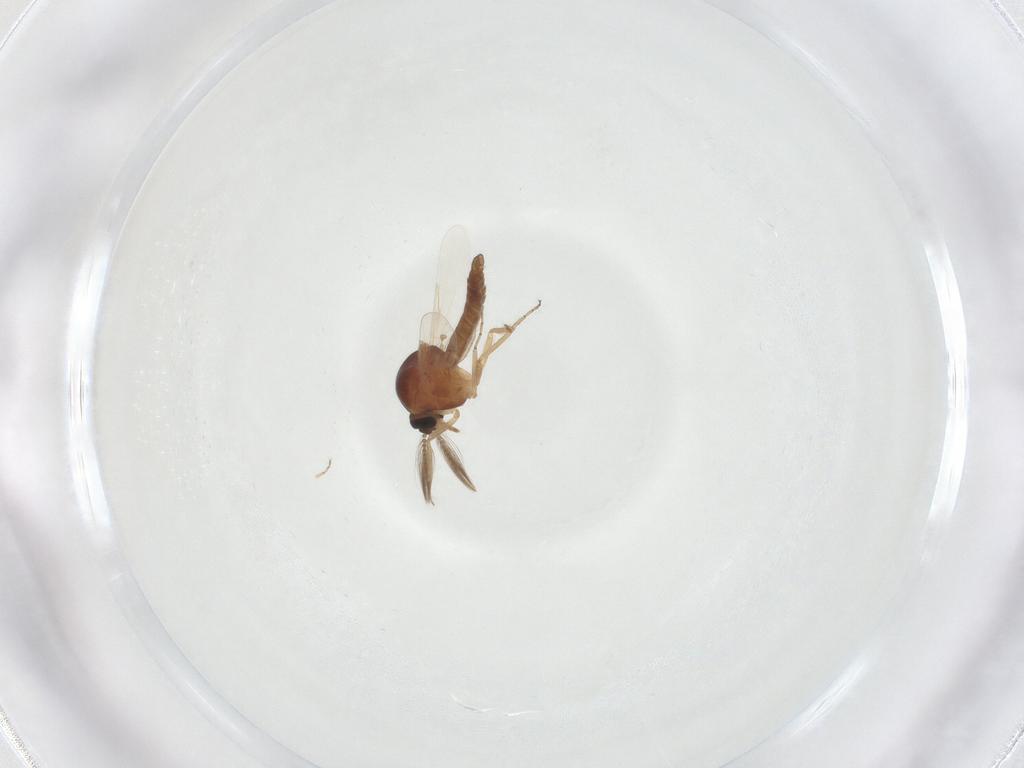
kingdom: Animalia
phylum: Arthropoda
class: Insecta
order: Diptera
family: Ceratopogonidae
